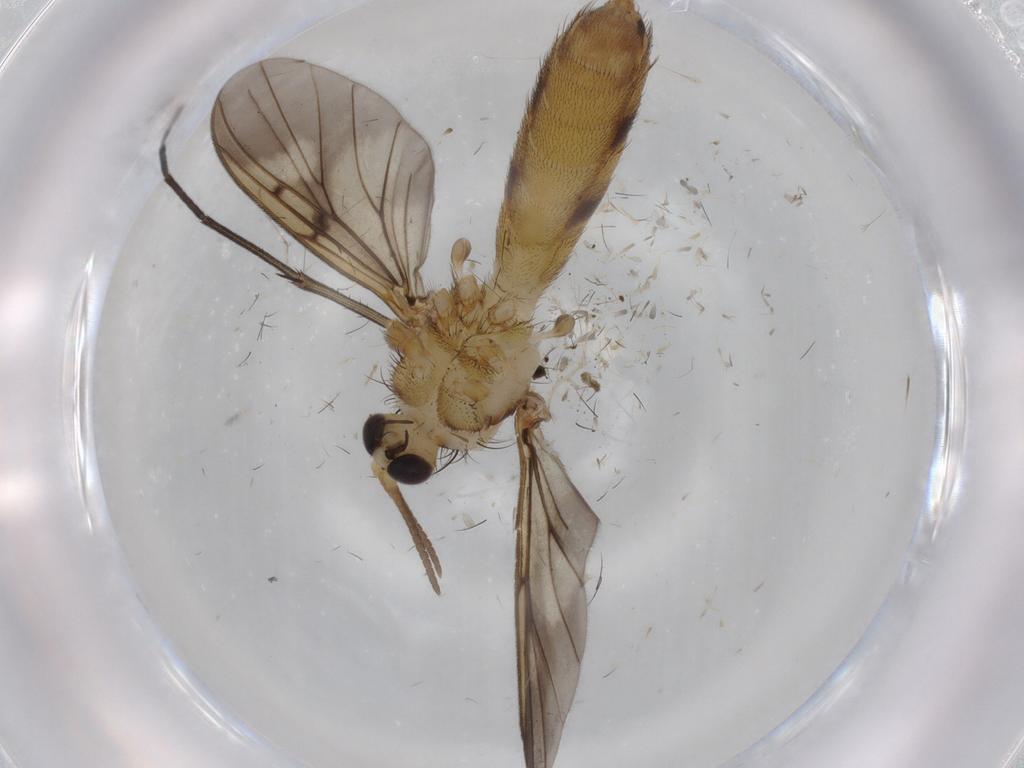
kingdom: Animalia
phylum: Arthropoda
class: Insecta
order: Diptera
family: Mycetophilidae
